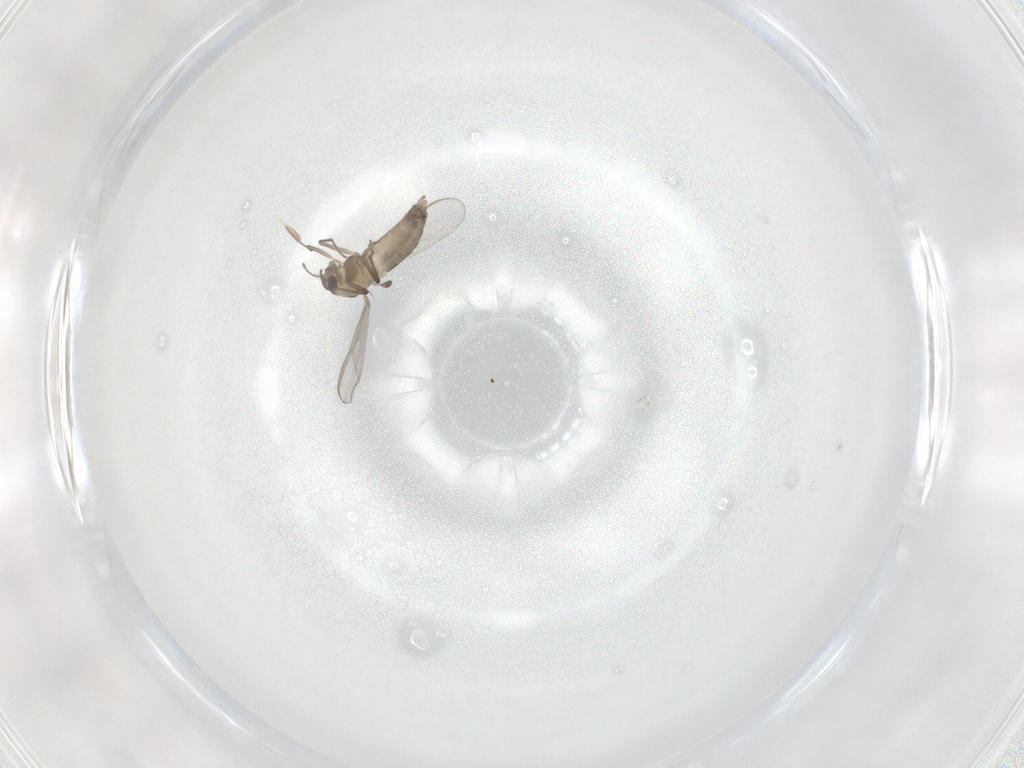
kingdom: Animalia
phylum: Arthropoda
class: Insecta
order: Diptera
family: Chironomidae
